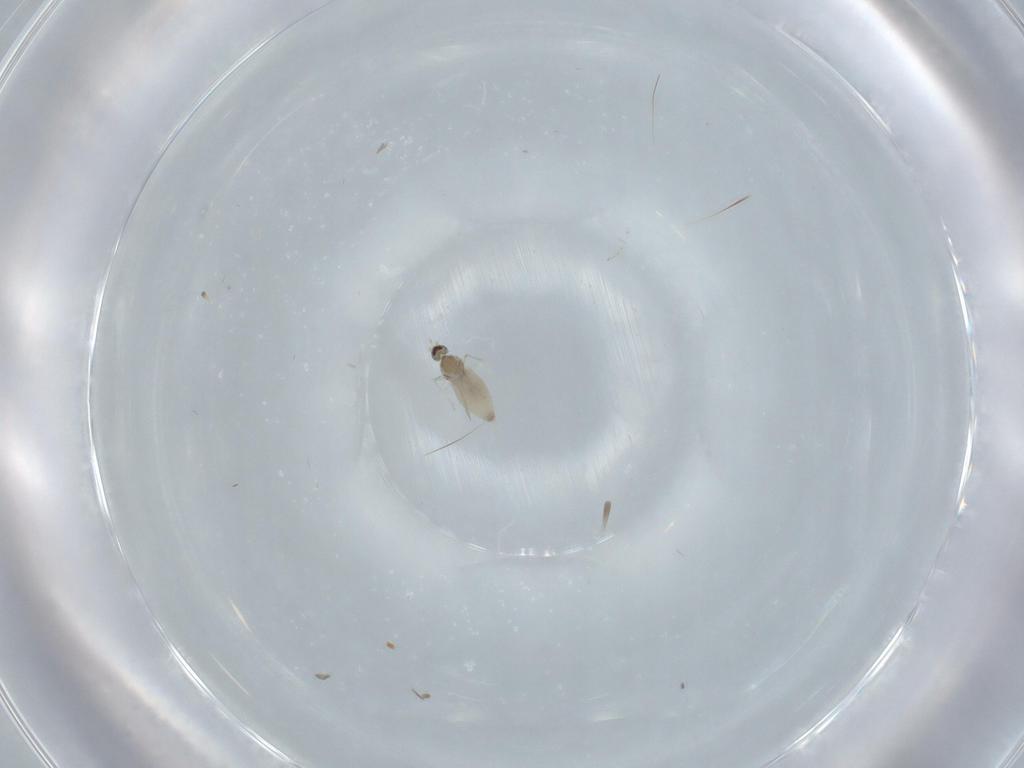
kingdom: Animalia
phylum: Arthropoda
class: Insecta
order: Diptera
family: Cecidomyiidae
